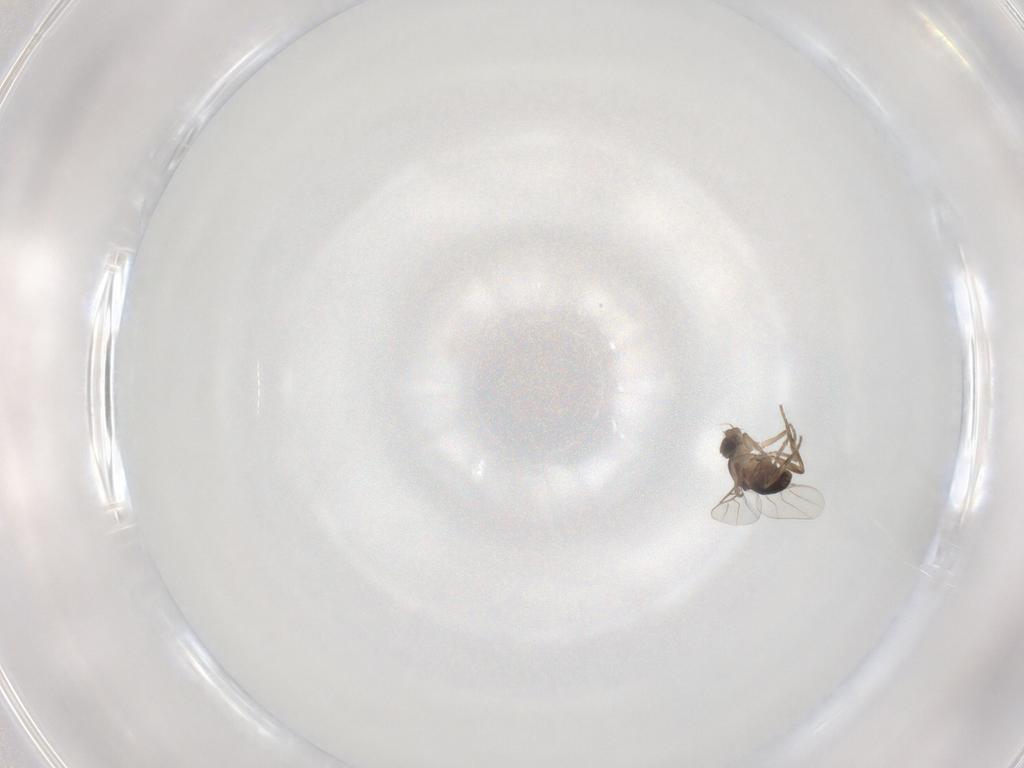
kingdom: Animalia
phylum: Arthropoda
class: Insecta
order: Diptera
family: Phoridae
